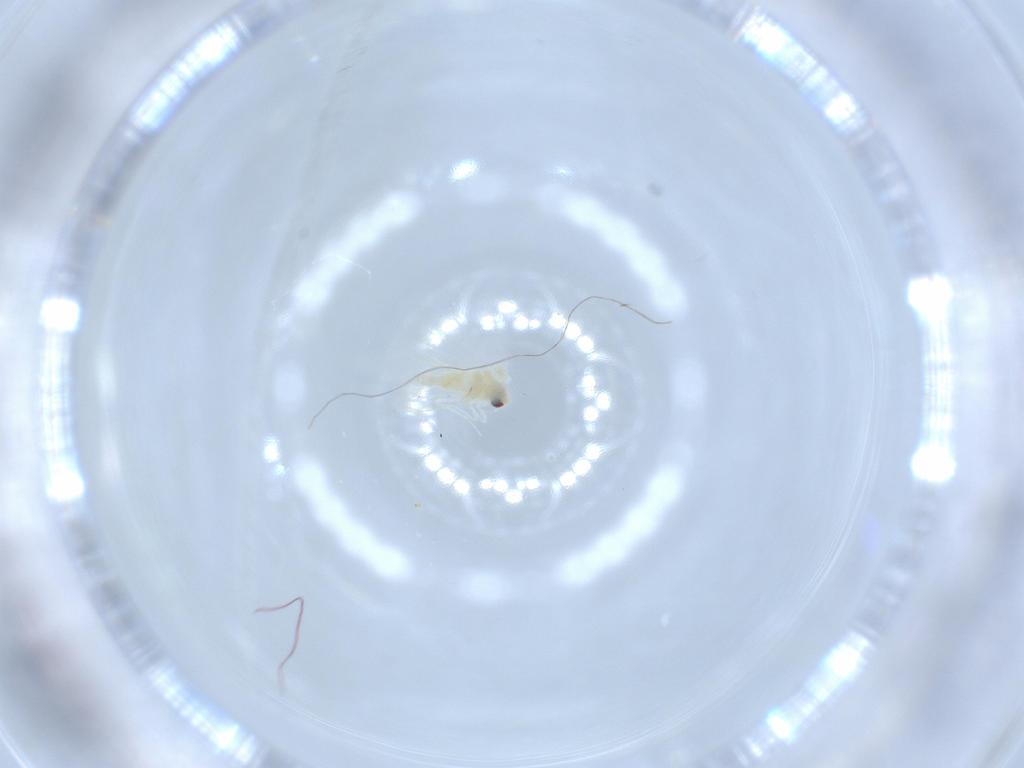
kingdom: Animalia
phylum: Arthropoda
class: Insecta
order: Hemiptera
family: Aleyrodidae
